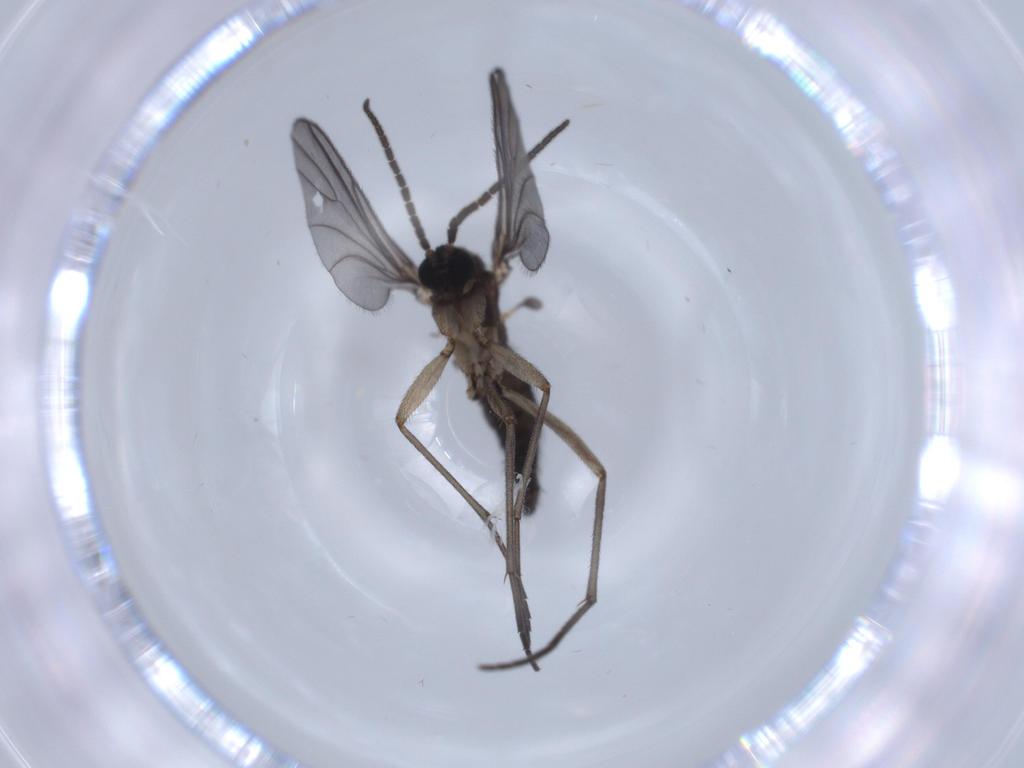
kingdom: Animalia
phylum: Arthropoda
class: Insecta
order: Diptera
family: Sciaridae
